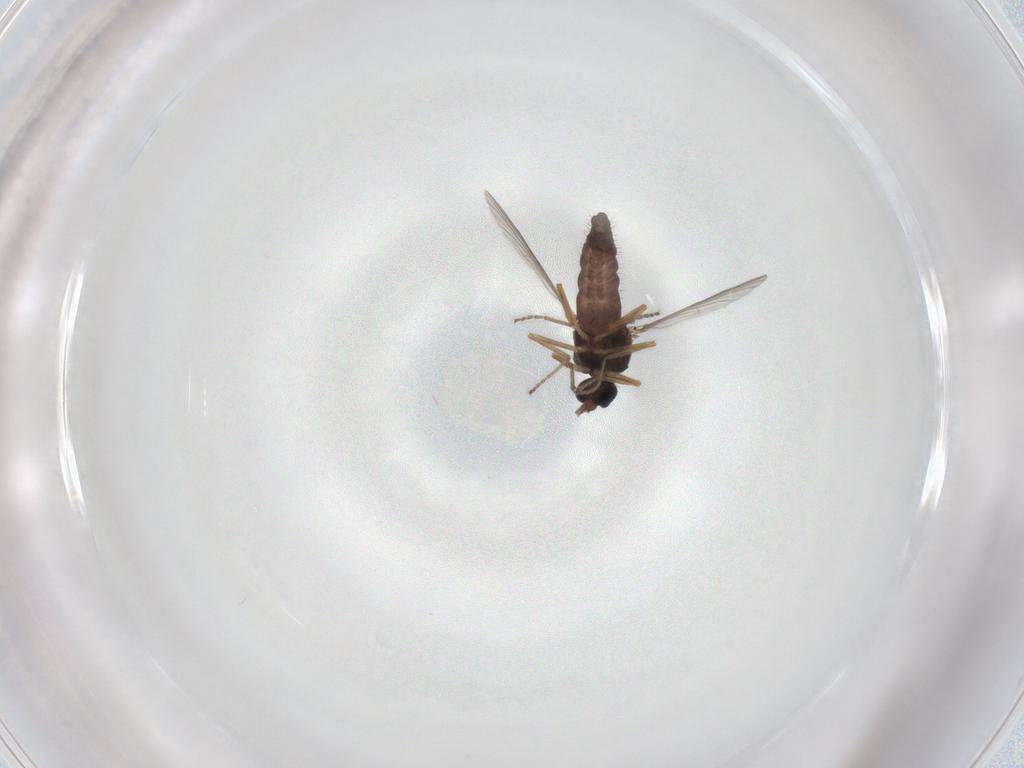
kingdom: Animalia
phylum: Arthropoda
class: Insecta
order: Diptera
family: Ceratopogonidae
